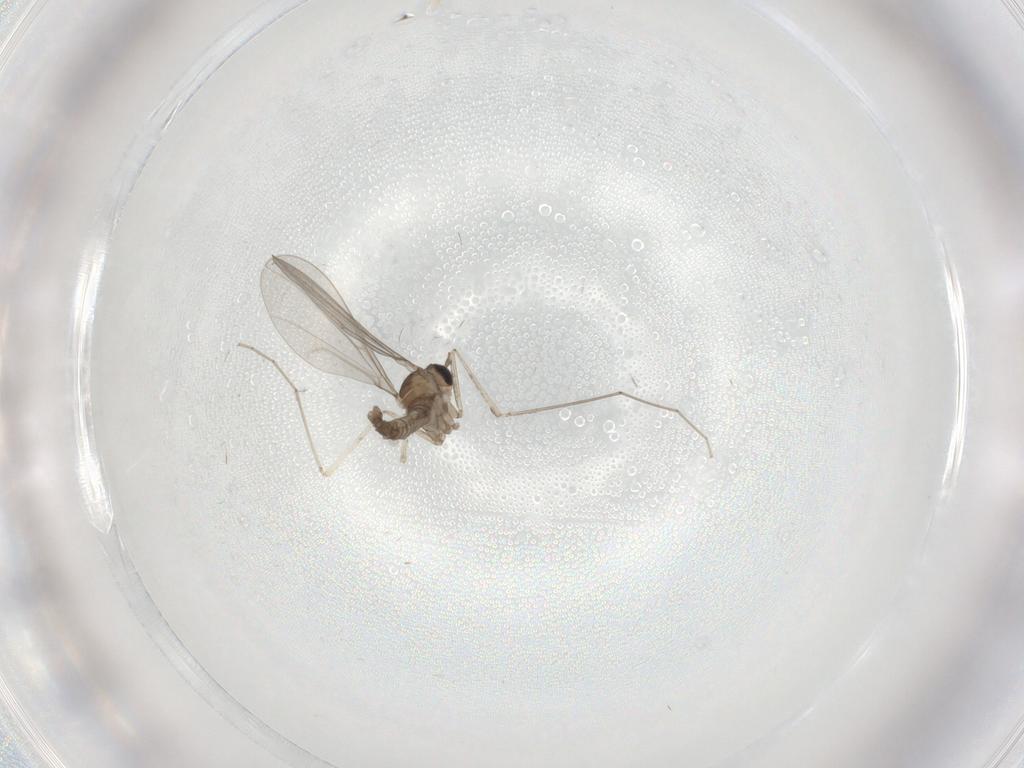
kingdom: Animalia
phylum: Arthropoda
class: Insecta
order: Diptera
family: Cecidomyiidae
